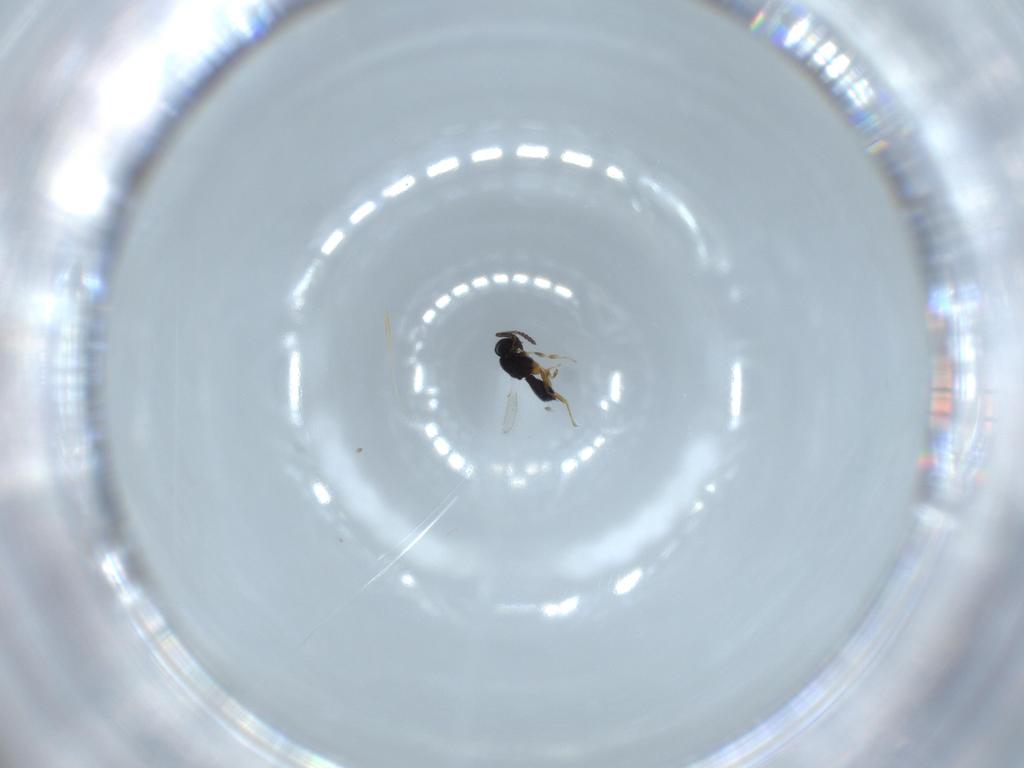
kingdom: Animalia
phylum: Arthropoda
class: Insecta
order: Hymenoptera
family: Scelionidae
